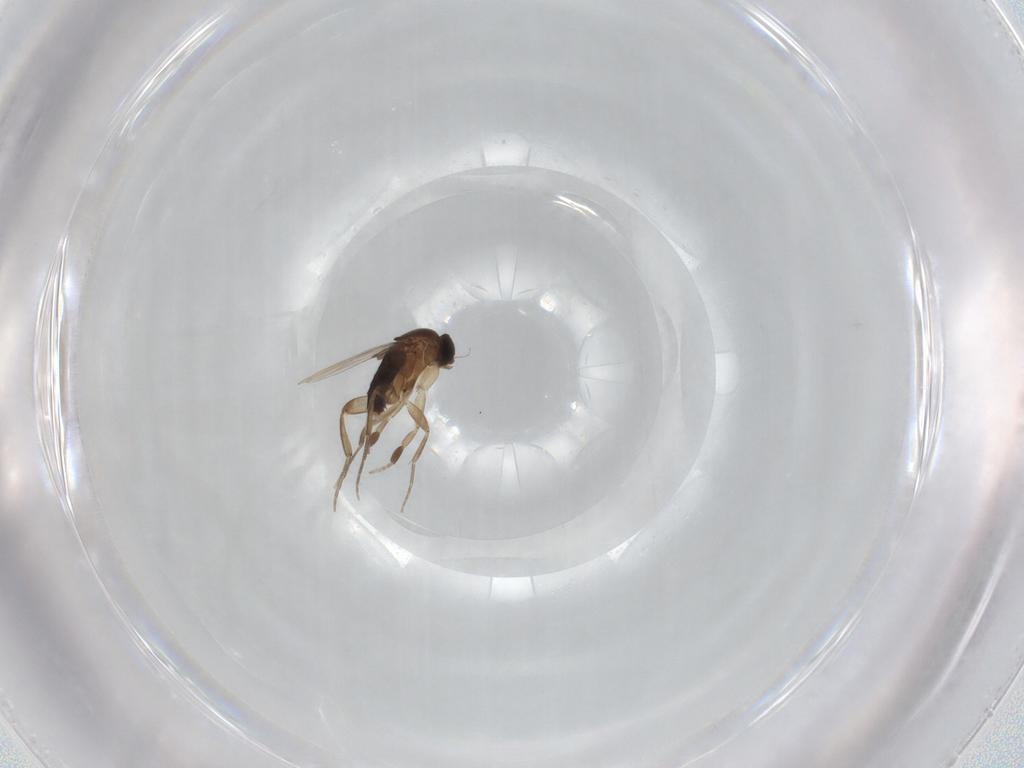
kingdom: Animalia
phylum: Arthropoda
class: Insecta
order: Diptera
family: Phoridae
